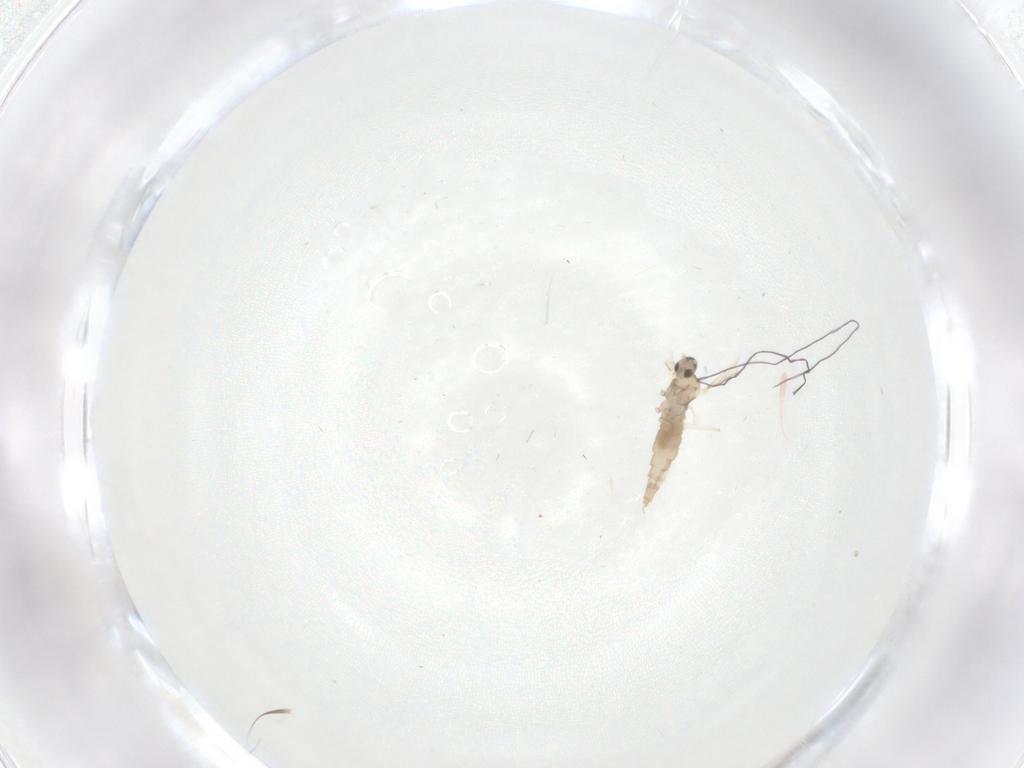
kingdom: Animalia
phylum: Arthropoda
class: Insecta
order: Diptera
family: Cecidomyiidae
